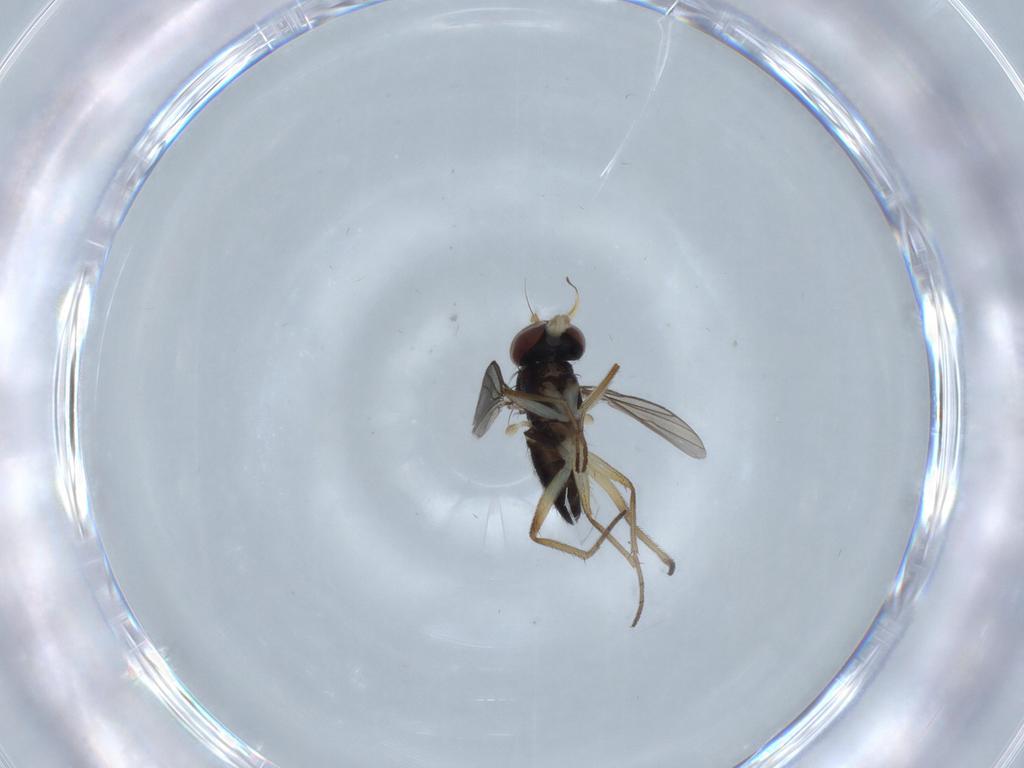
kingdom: Animalia
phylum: Arthropoda
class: Insecta
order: Diptera
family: Dolichopodidae
